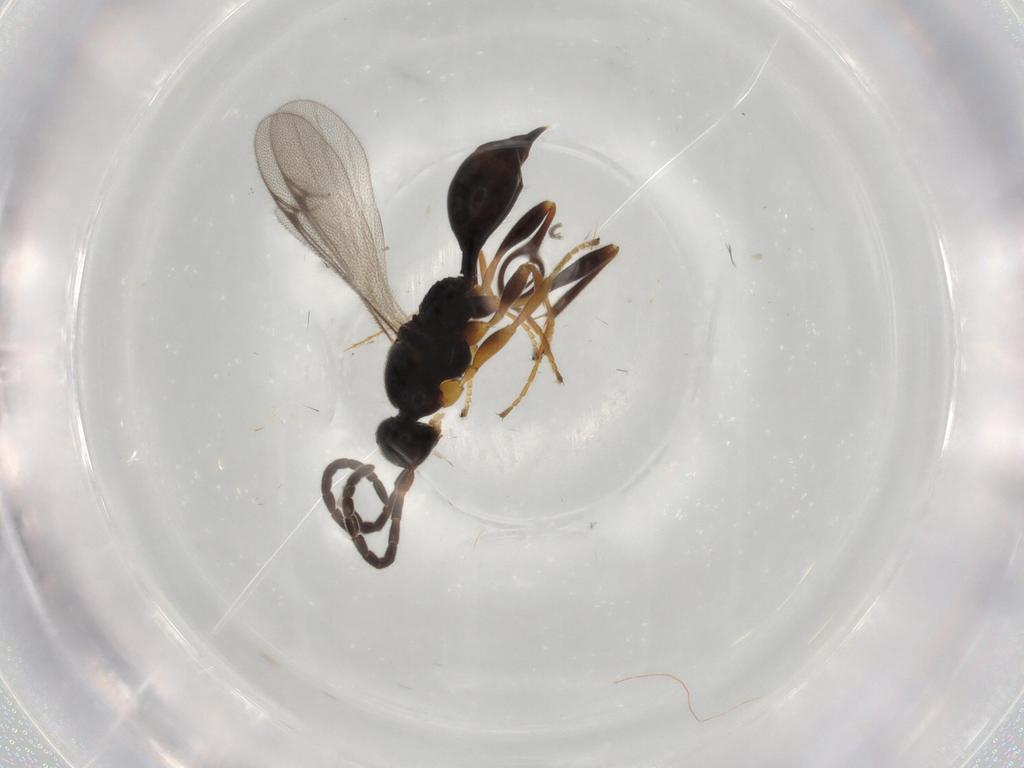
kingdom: Animalia
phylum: Arthropoda
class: Insecta
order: Hymenoptera
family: Proctotrupidae
